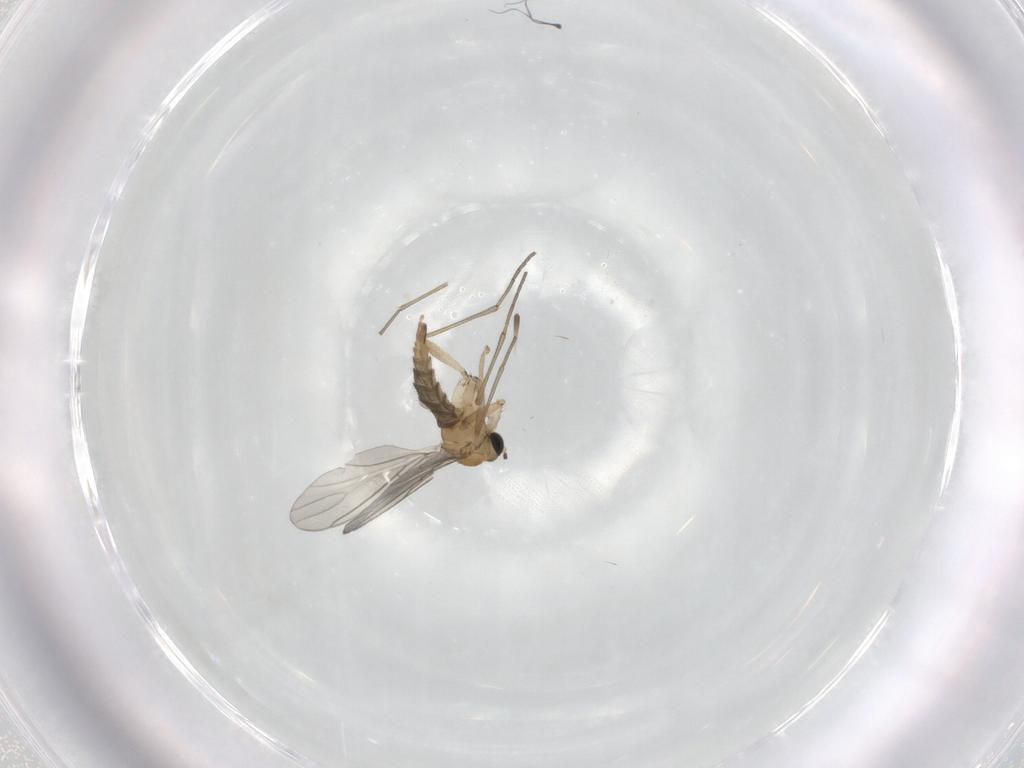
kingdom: Animalia
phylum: Arthropoda
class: Insecta
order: Diptera
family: Sciaridae
